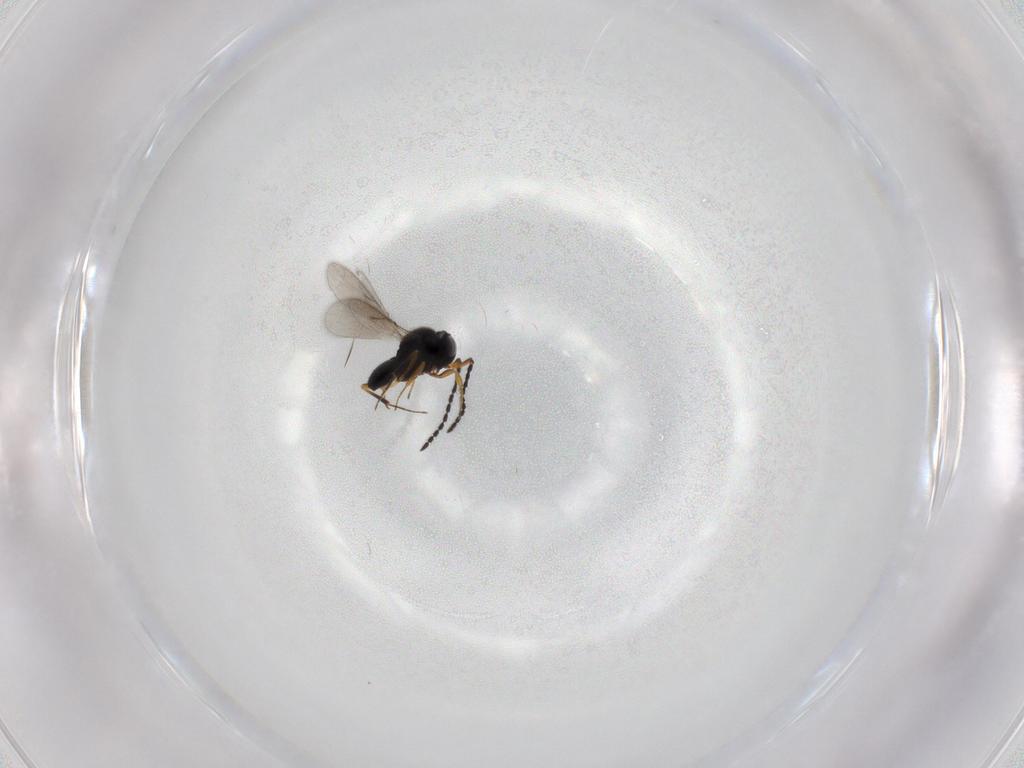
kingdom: Animalia
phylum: Arthropoda
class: Insecta
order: Hymenoptera
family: Scelionidae
